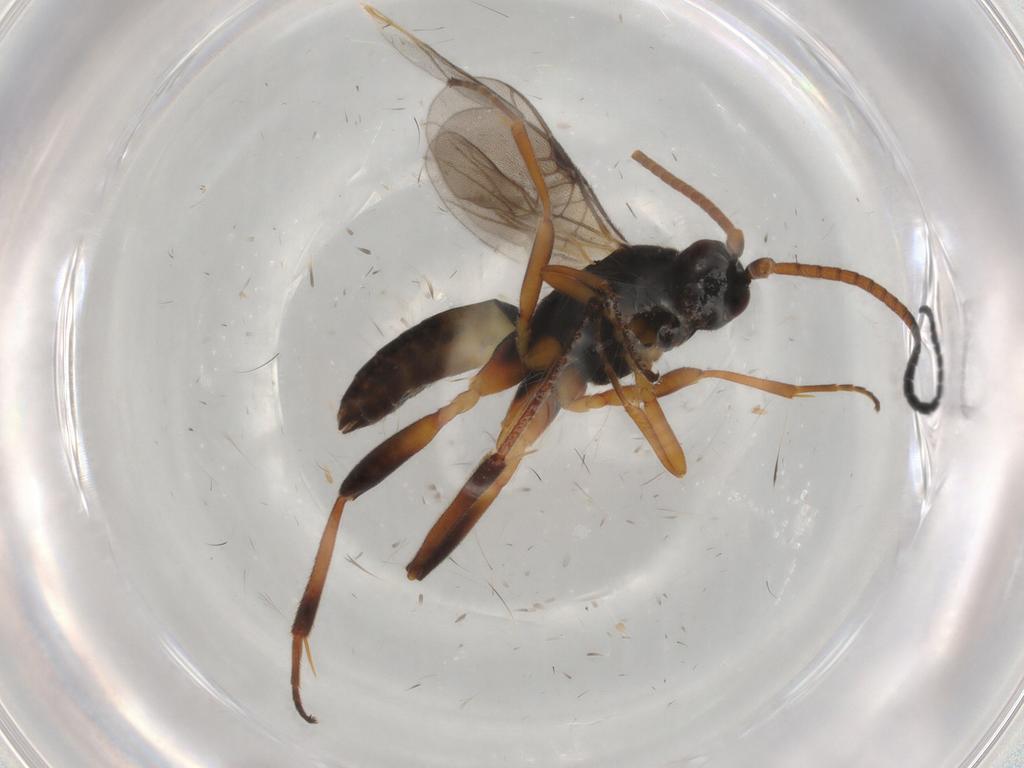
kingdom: Animalia
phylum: Arthropoda
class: Insecta
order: Hymenoptera
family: Braconidae
